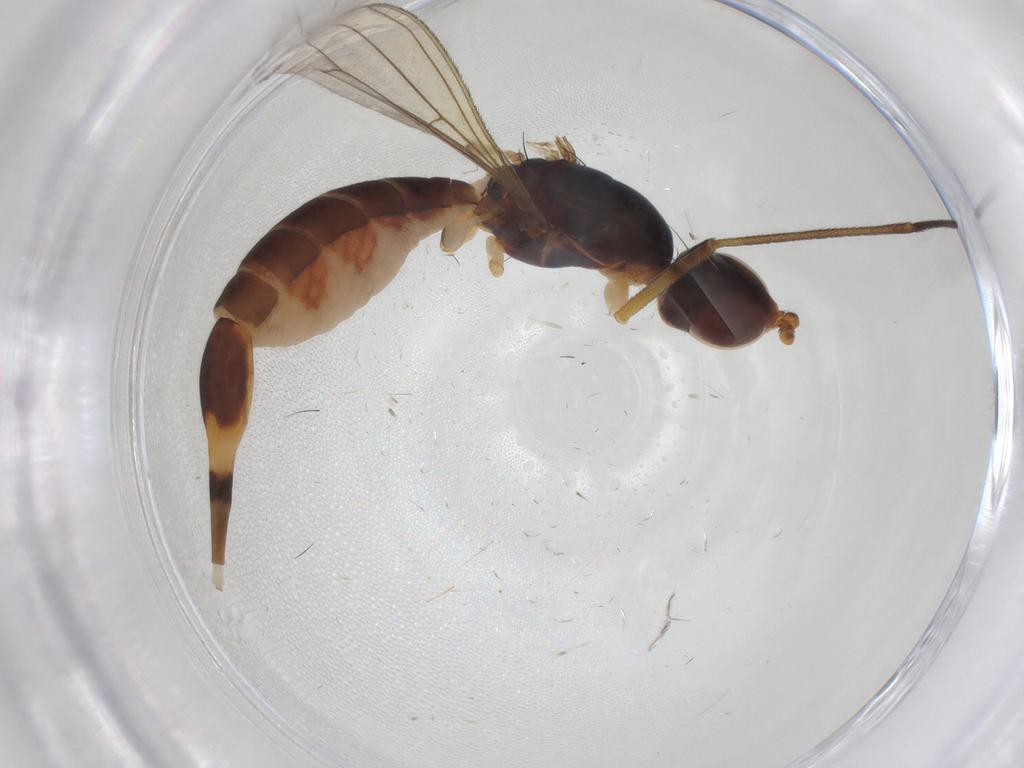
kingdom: Animalia
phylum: Arthropoda
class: Insecta
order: Diptera
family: Micropezidae
